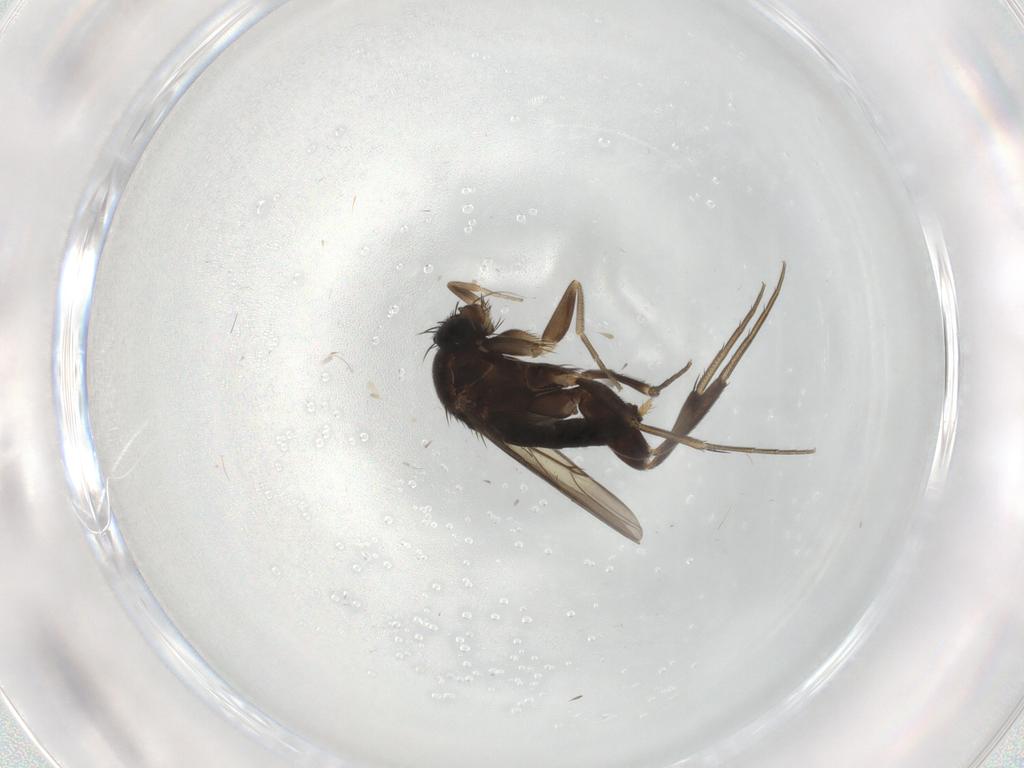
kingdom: Animalia
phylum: Arthropoda
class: Insecta
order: Diptera
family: Phoridae
